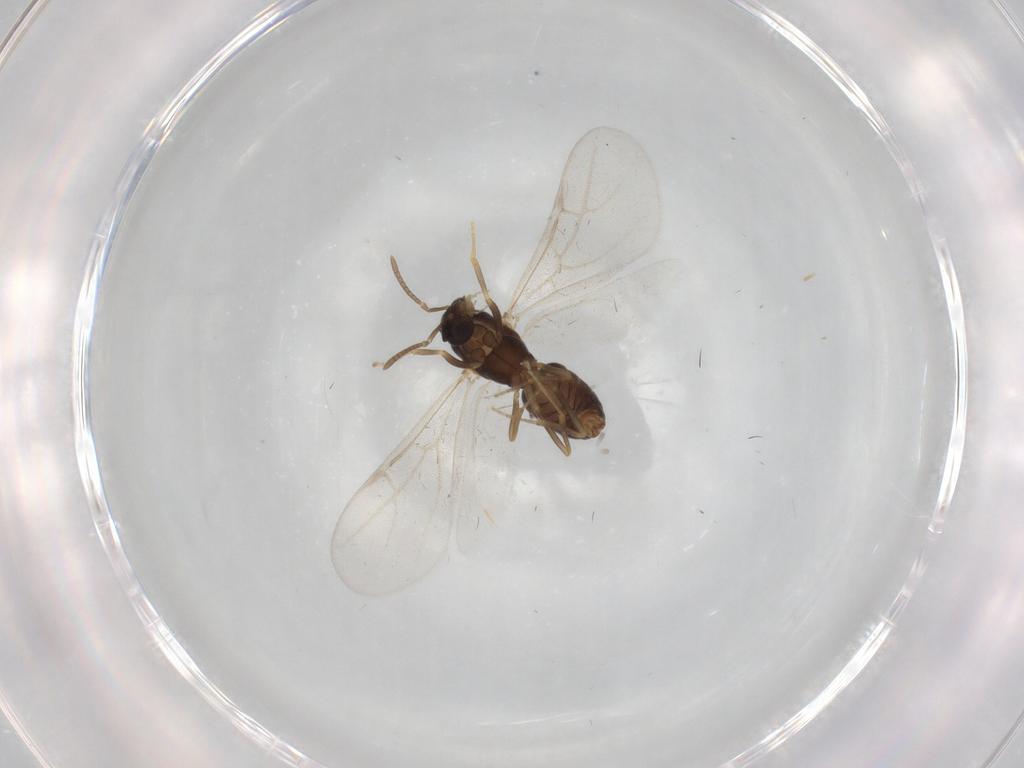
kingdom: Animalia
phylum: Arthropoda
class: Insecta
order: Hymenoptera
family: Formicidae
